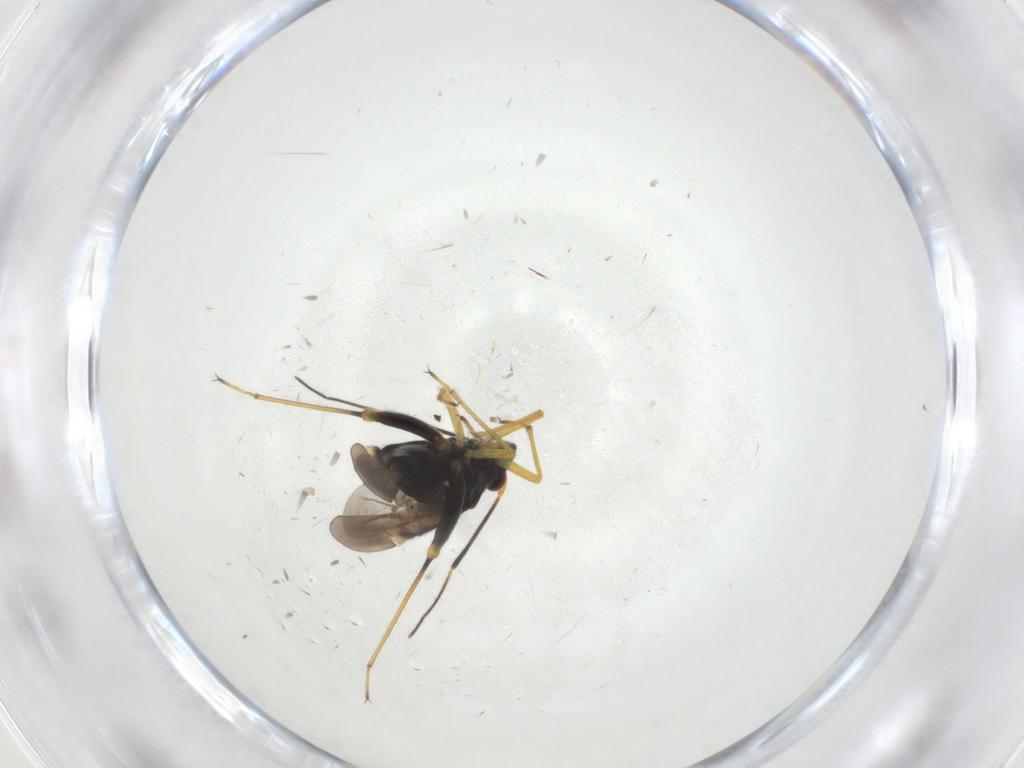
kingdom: Animalia
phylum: Arthropoda
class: Insecta
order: Hemiptera
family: Miridae
